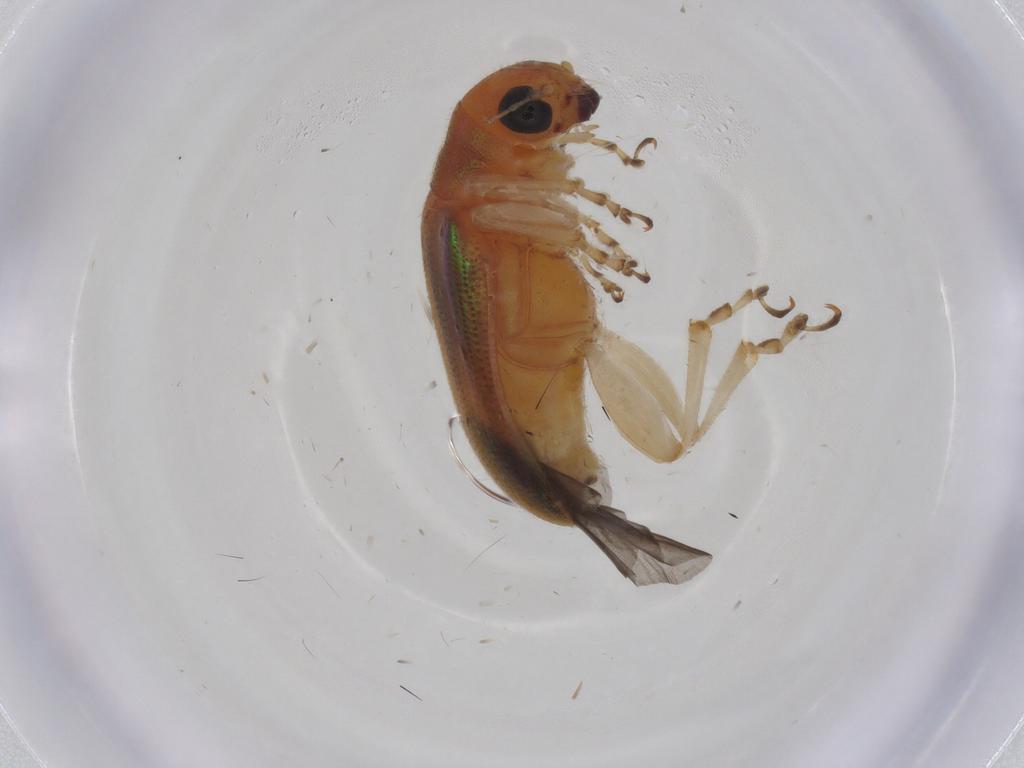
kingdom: Animalia
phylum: Arthropoda
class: Insecta
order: Coleoptera
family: Chrysomelidae
